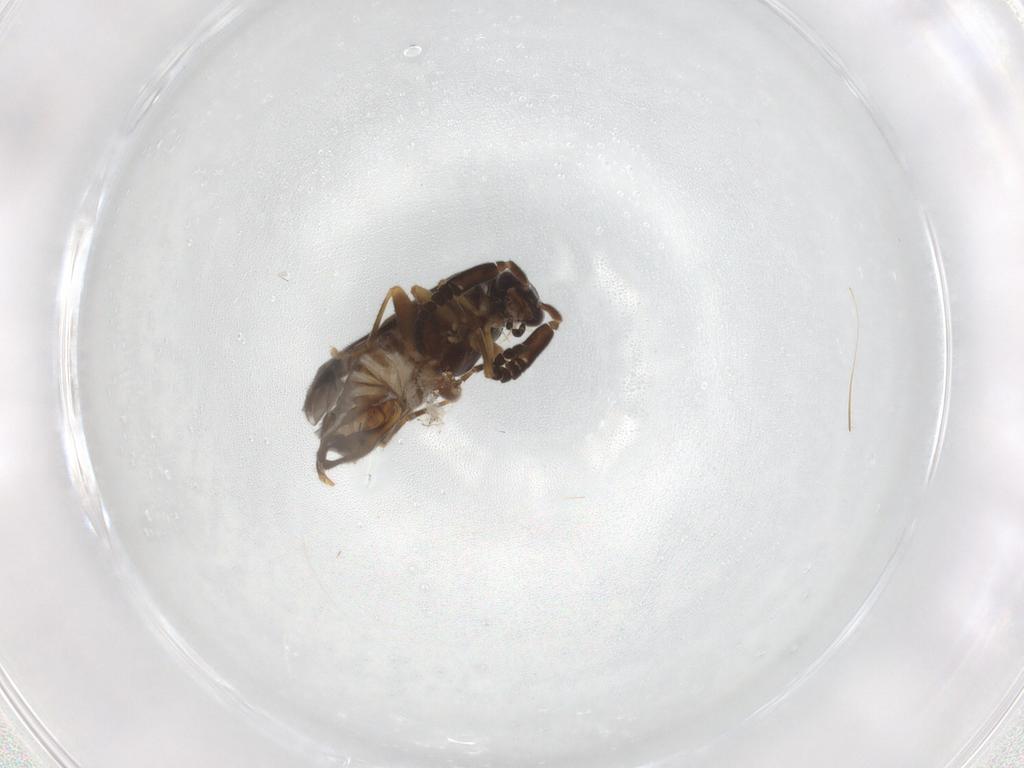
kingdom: Animalia
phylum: Arthropoda
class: Insecta
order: Coleoptera
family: Cantharidae
